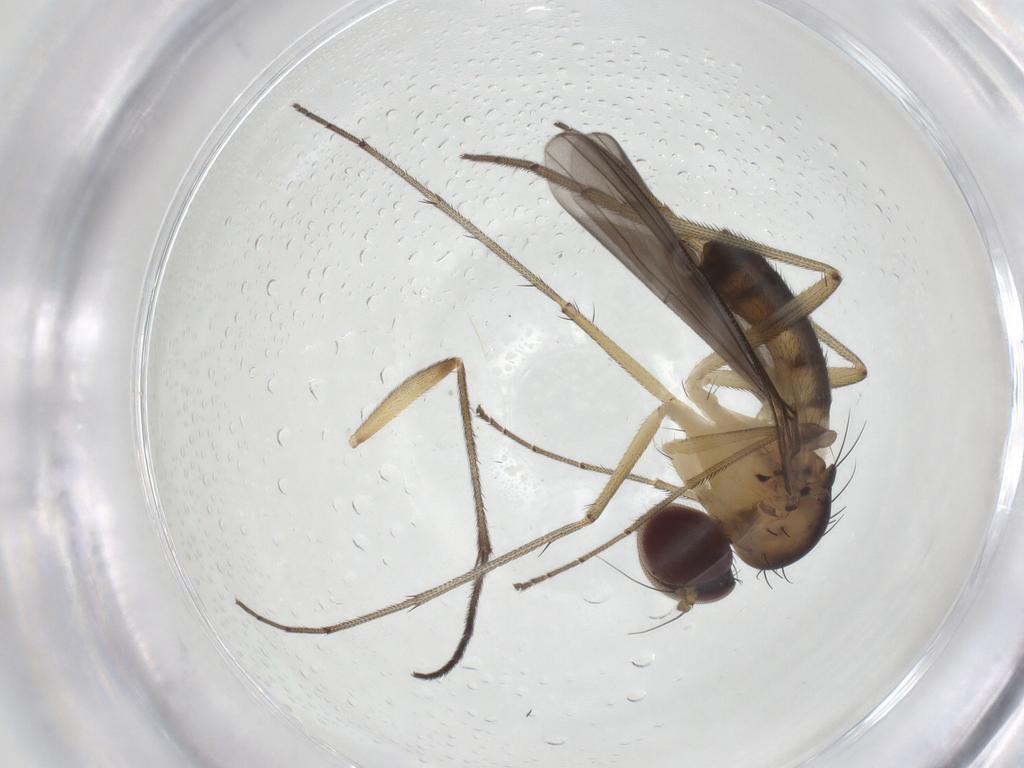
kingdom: Animalia
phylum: Arthropoda
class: Insecta
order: Diptera
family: Dolichopodidae
